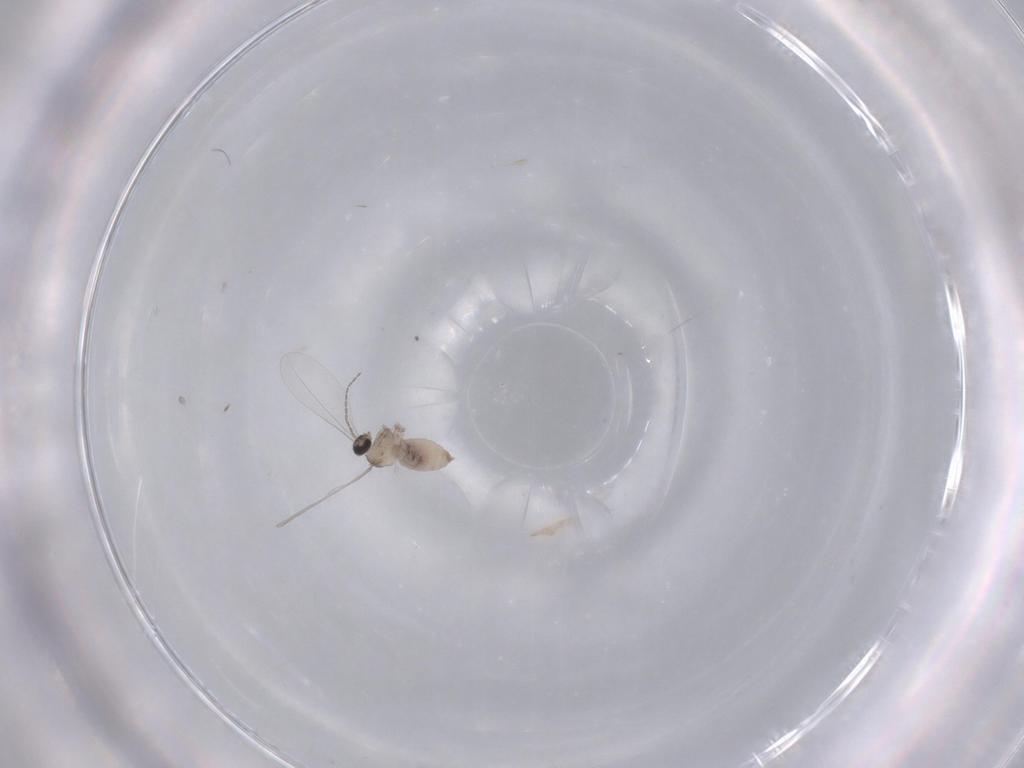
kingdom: Animalia
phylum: Arthropoda
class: Insecta
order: Diptera
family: Cecidomyiidae
